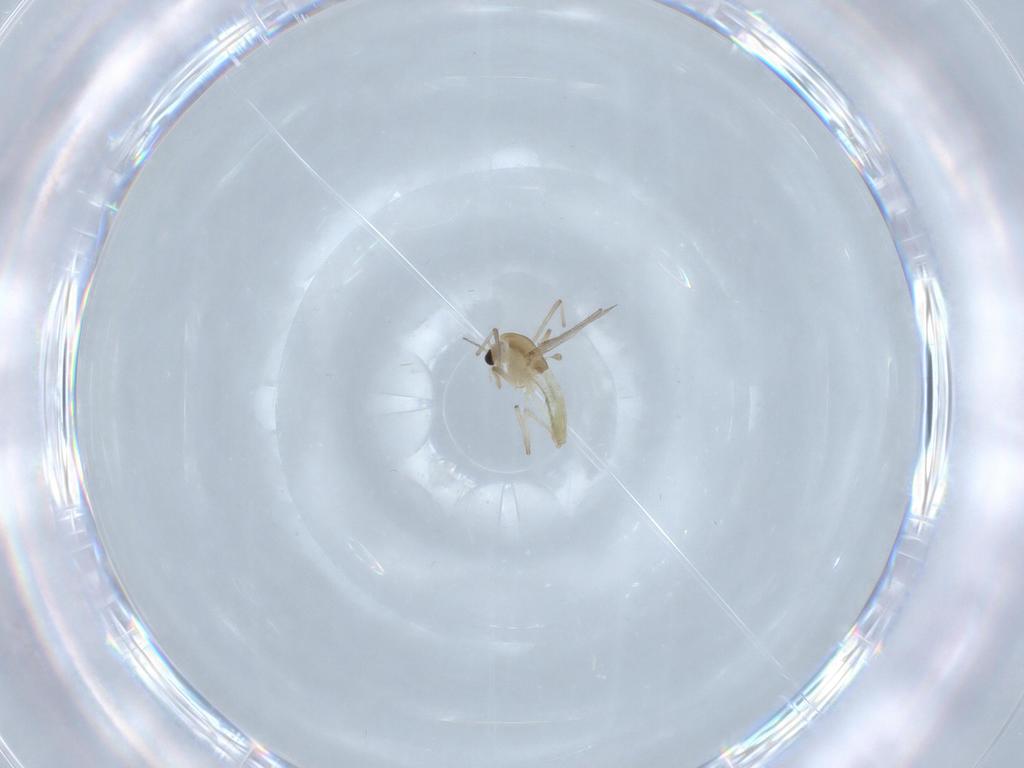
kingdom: Animalia
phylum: Arthropoda
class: Insecta
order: Diptera
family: Chironomidae
